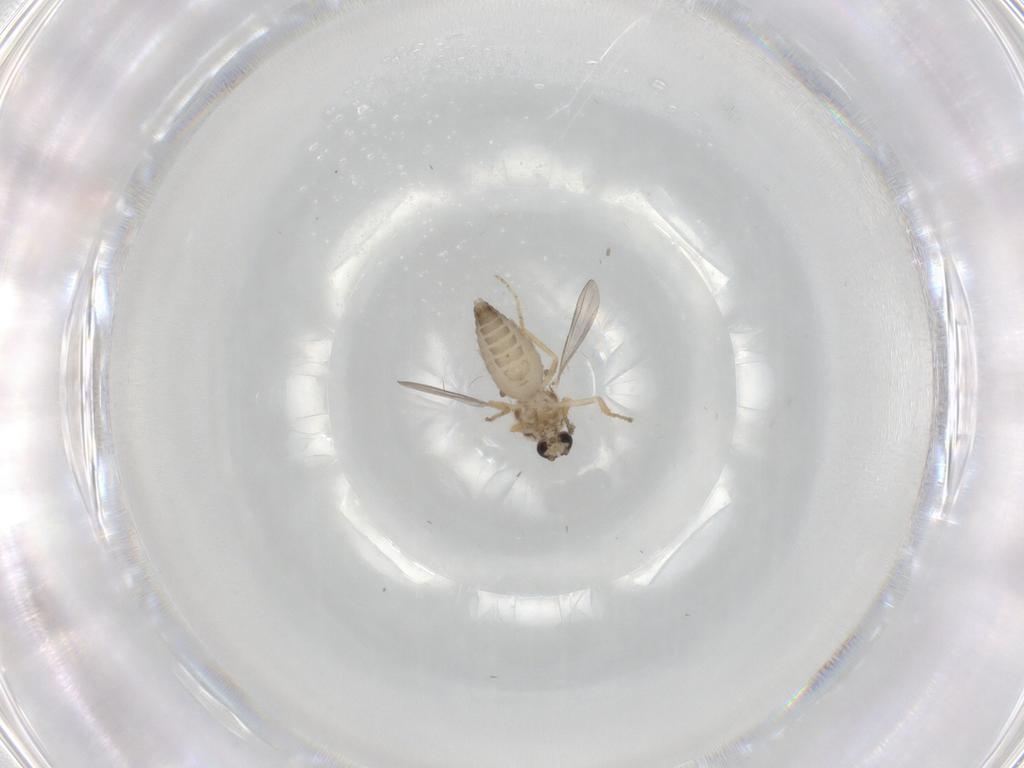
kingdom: Animalia
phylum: Arthropoda
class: Insecta
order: Diptera
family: Ceratopogonidae
